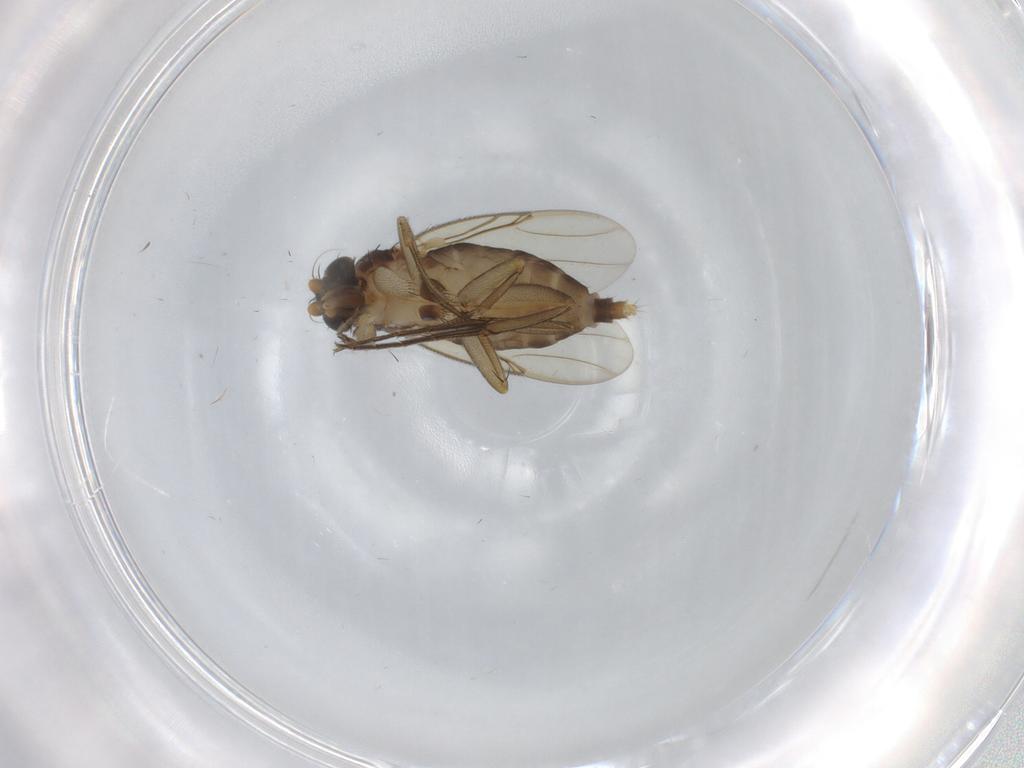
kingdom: Animalia
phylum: Arthropoda
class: Insecta
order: Diptera
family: Phoridae
